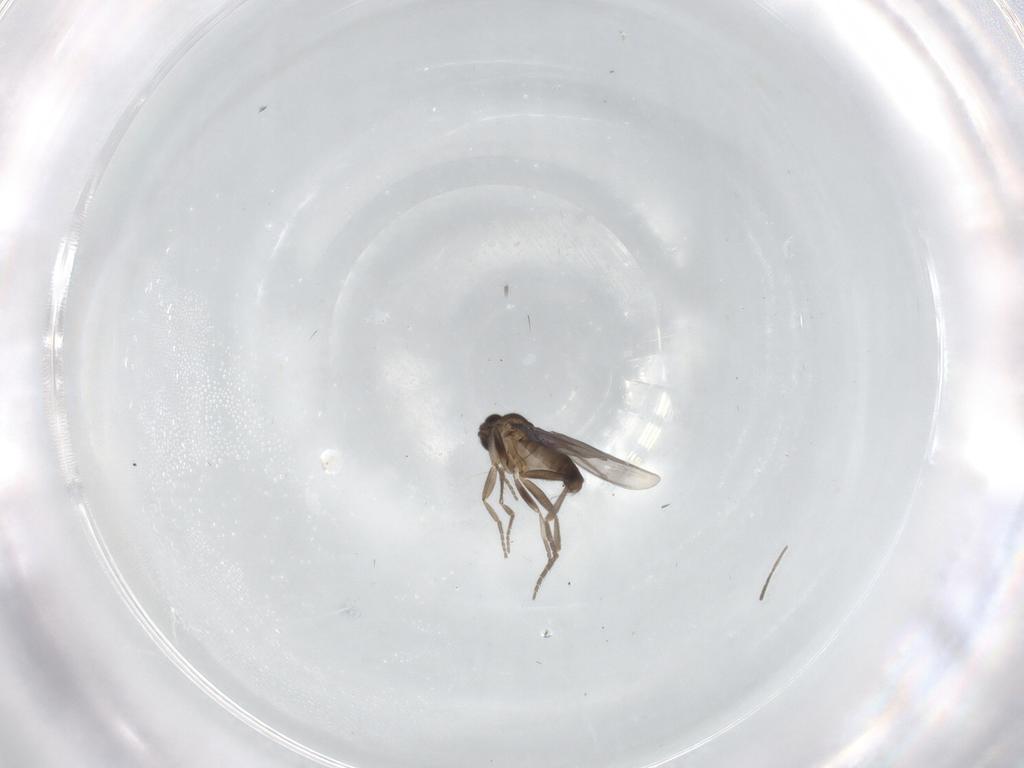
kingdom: Animalia
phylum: Arthropoda
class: Insecta
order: Diptera
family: Phoridae
